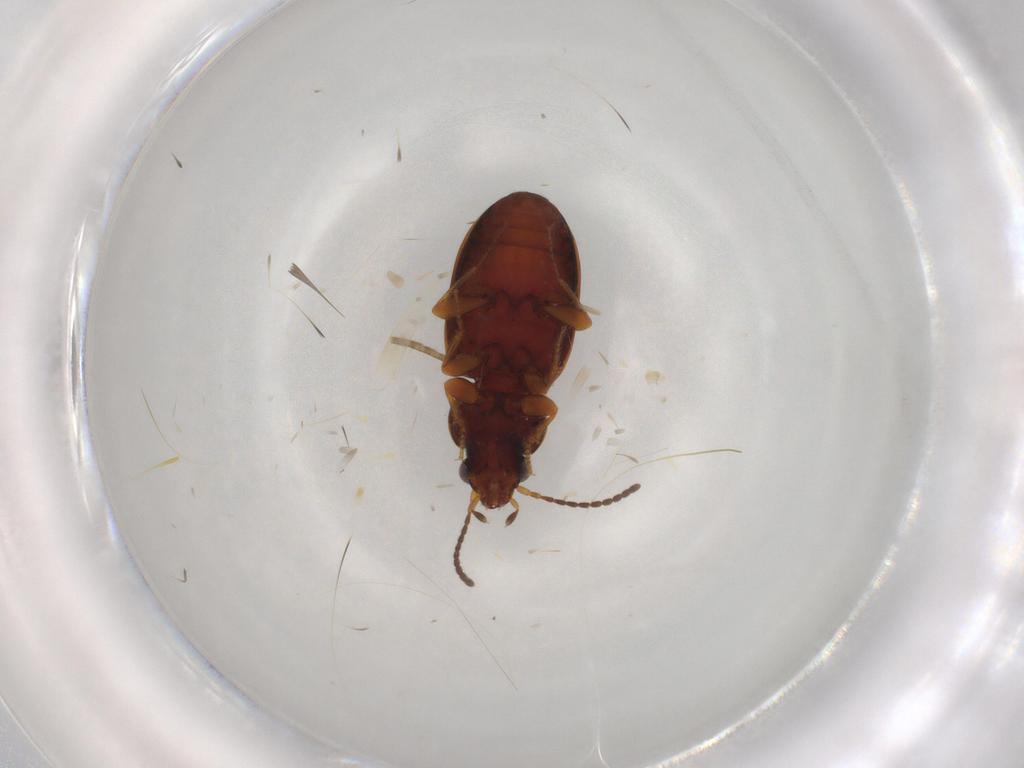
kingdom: Animalia
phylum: Arthropoda
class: Insecta
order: Coleoptera
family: Carabidae
